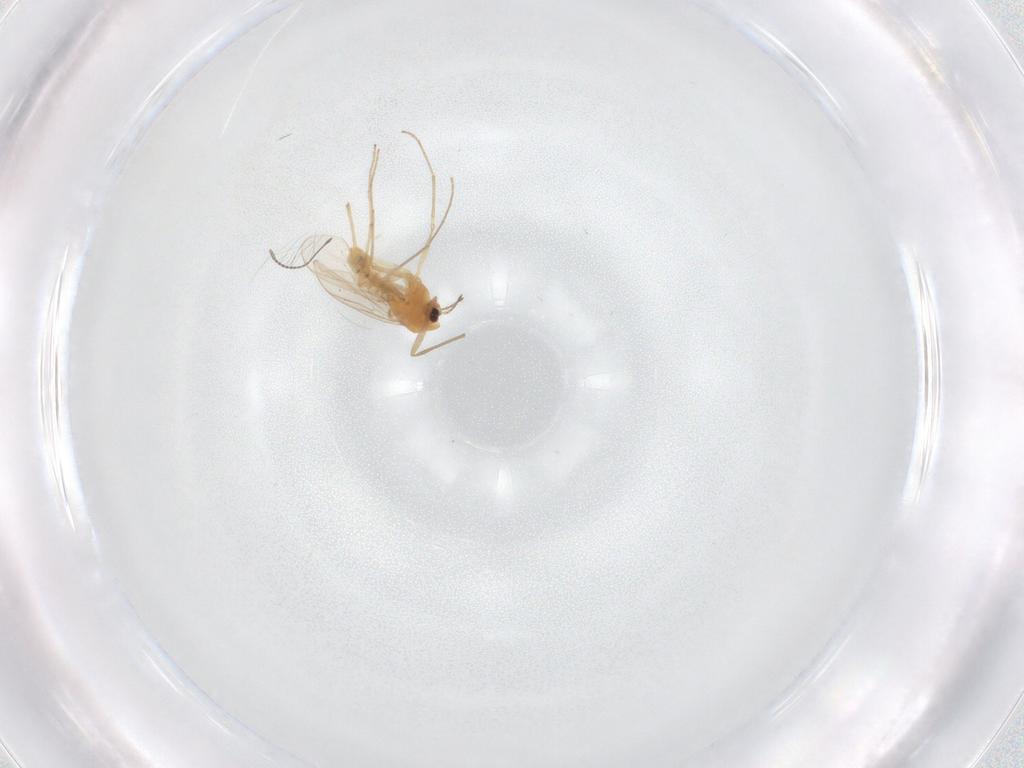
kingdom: Animalia
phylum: Arthropoda
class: Insecta
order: Diptera
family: Chironomidae
